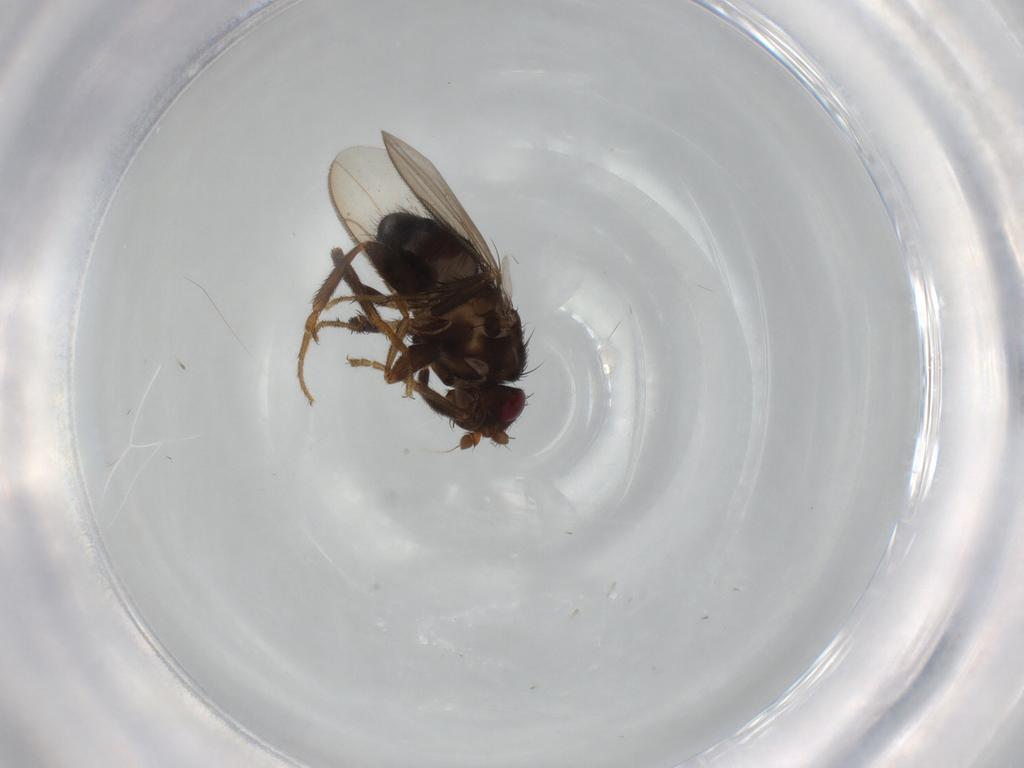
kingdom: Animalia
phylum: Arthropoda
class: Insecta
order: Diptera
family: Sphaeroceridae
